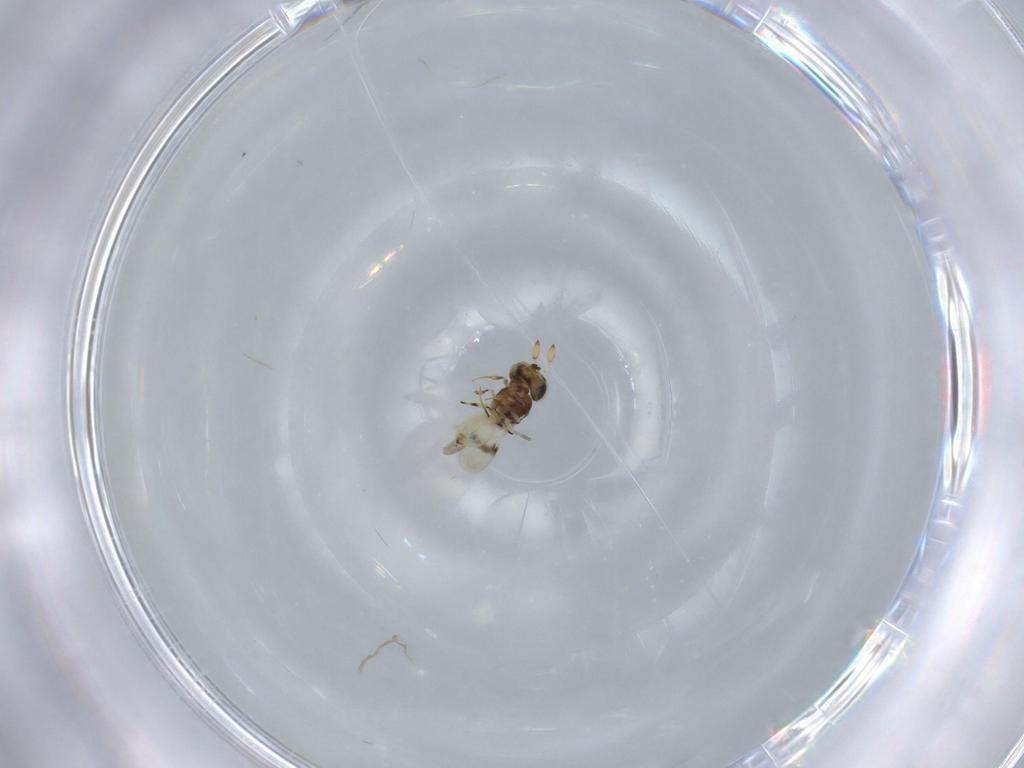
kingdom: Animalia
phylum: Arthropoda
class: Insecta
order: Hymenoptera
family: Scelionidae
